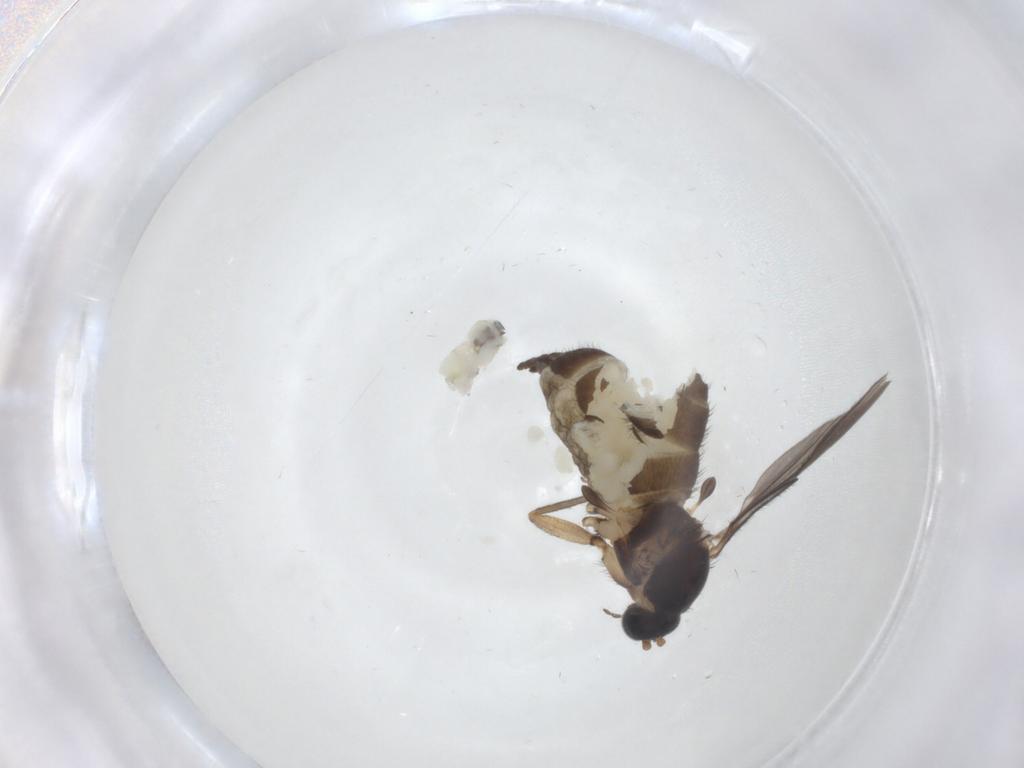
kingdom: Animalia
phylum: Arthropoda
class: Insecta
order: Diptera
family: Sciaridae
